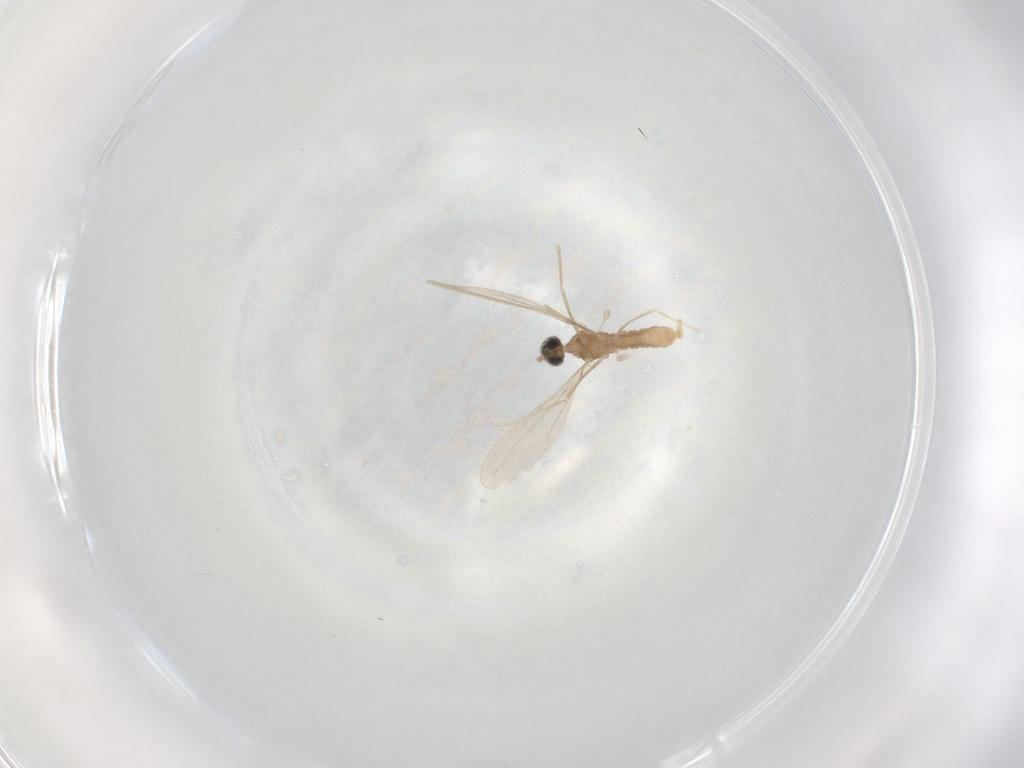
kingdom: Animalia
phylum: Arthropoda
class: Insecta
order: Diptera
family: Cecidomyiidae
